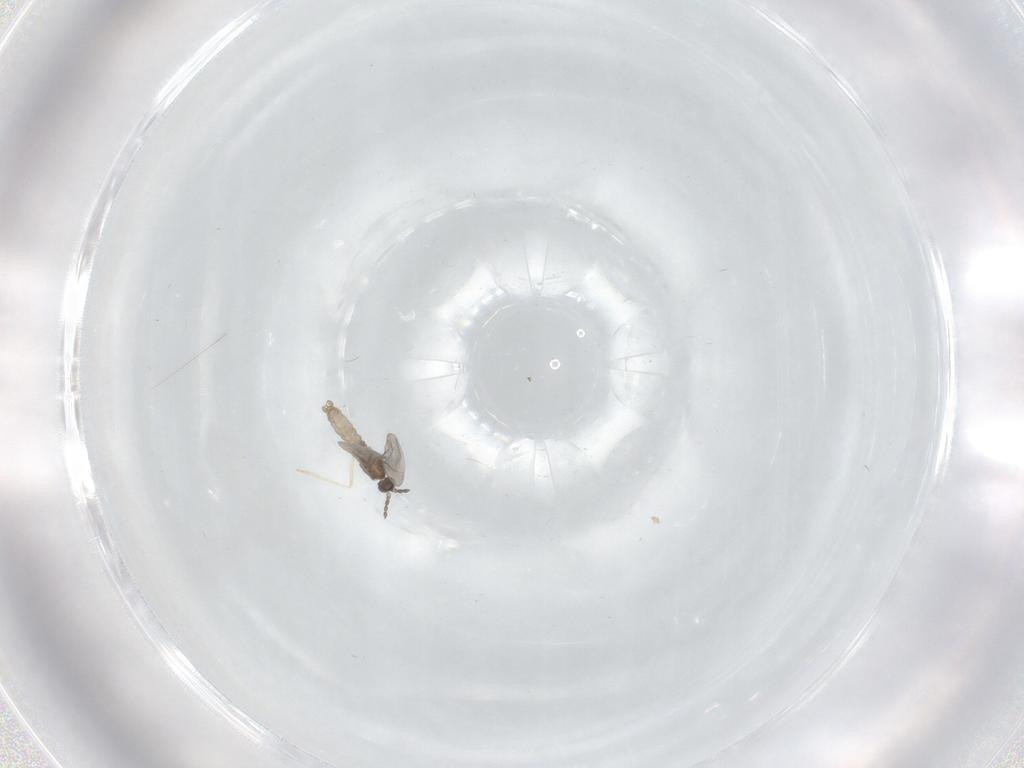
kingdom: Animalia
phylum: Arthropoda
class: Insecta
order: Diptera
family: Cecidomyiidae
